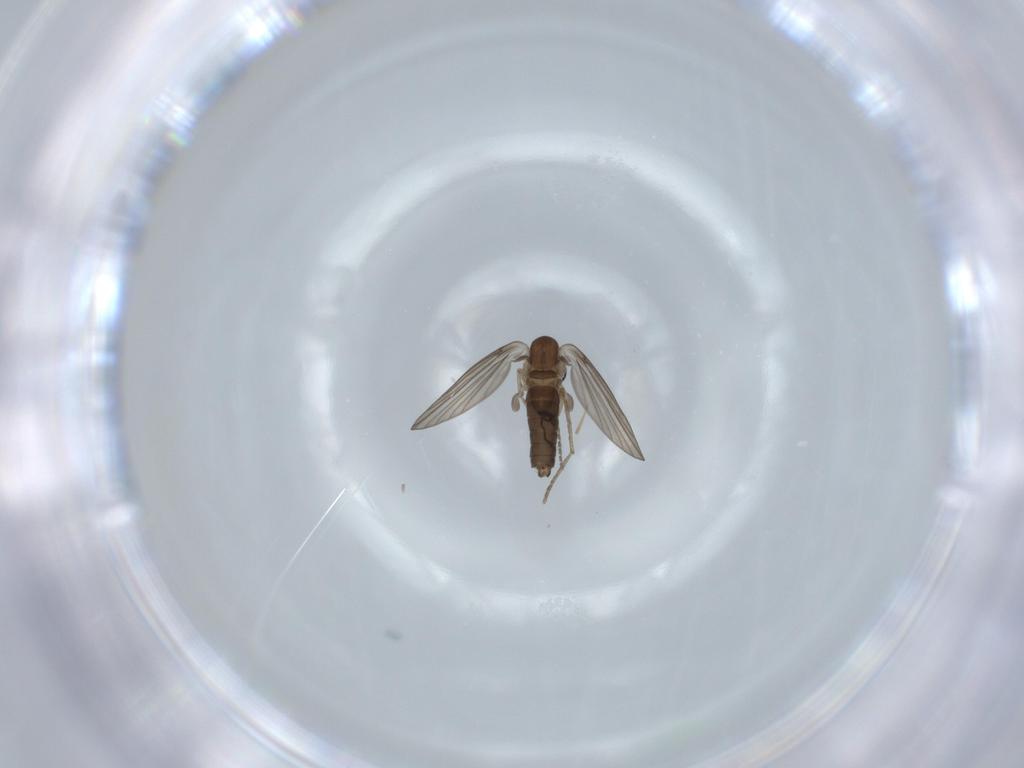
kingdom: Animalia
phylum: Arthropoda
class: Insecta
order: Diptera
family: Psychodidae
